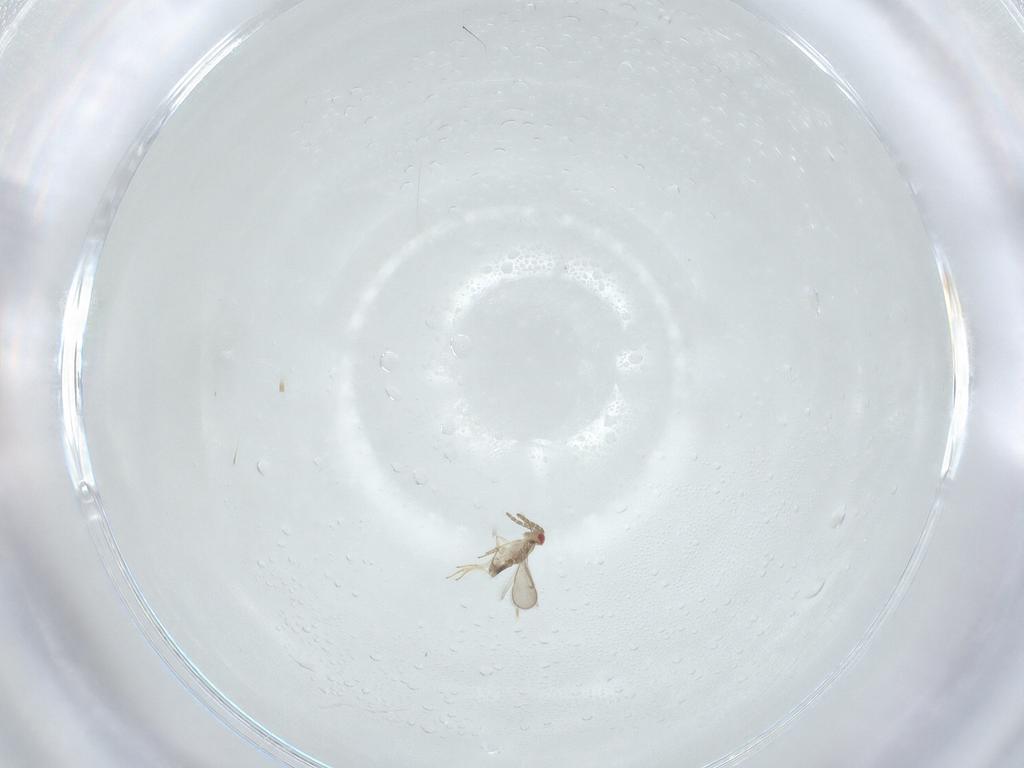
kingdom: Animalia
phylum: Arthropoda
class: Insecta
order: Hymenoptera
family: Aphelinidae
